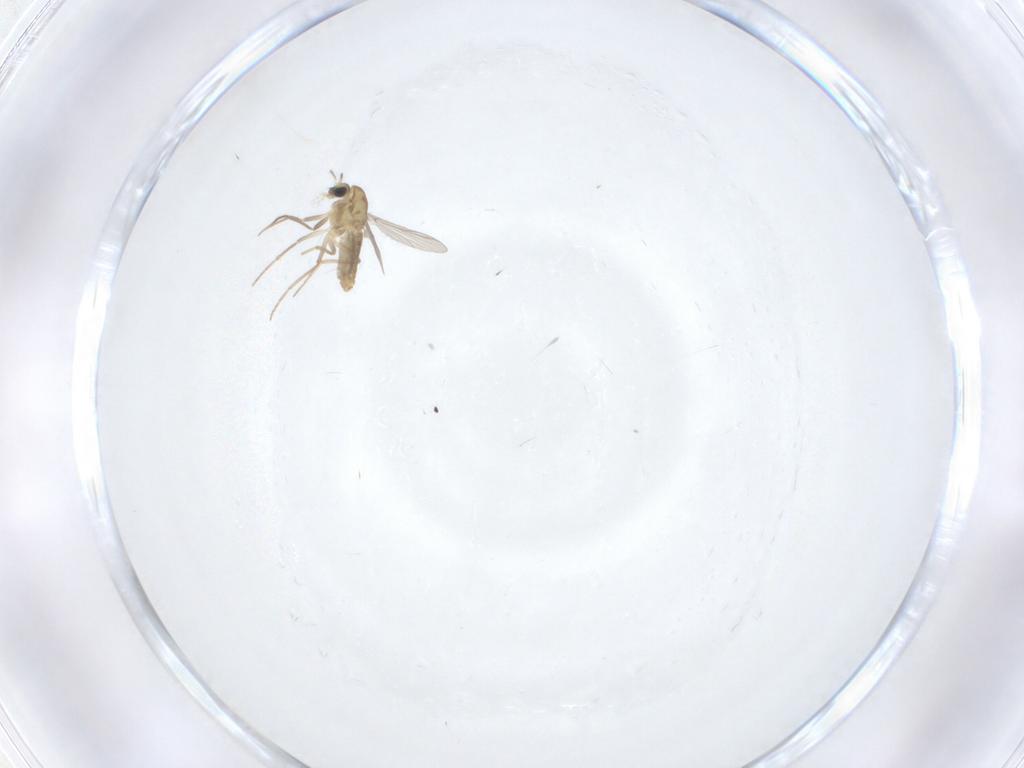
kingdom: Animalia
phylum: Arthropoda
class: Insecta
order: Diptera
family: Chironomidae
